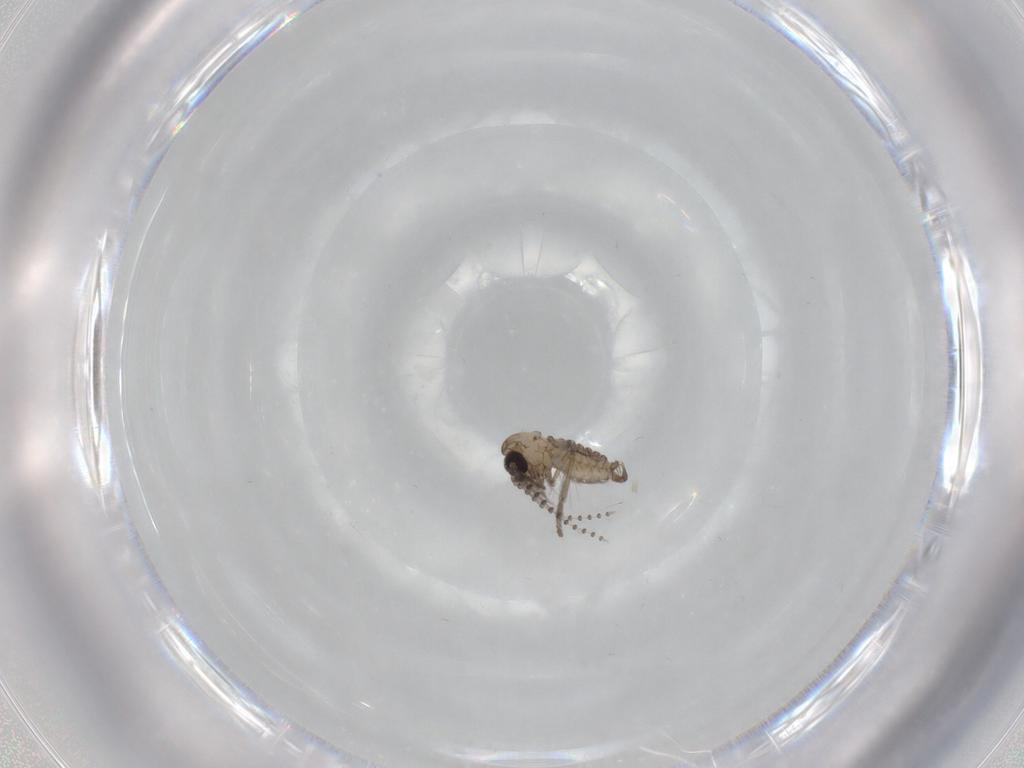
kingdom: Animalia
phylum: Arthropoda
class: Insecta
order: Diptera
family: Psychodidae
